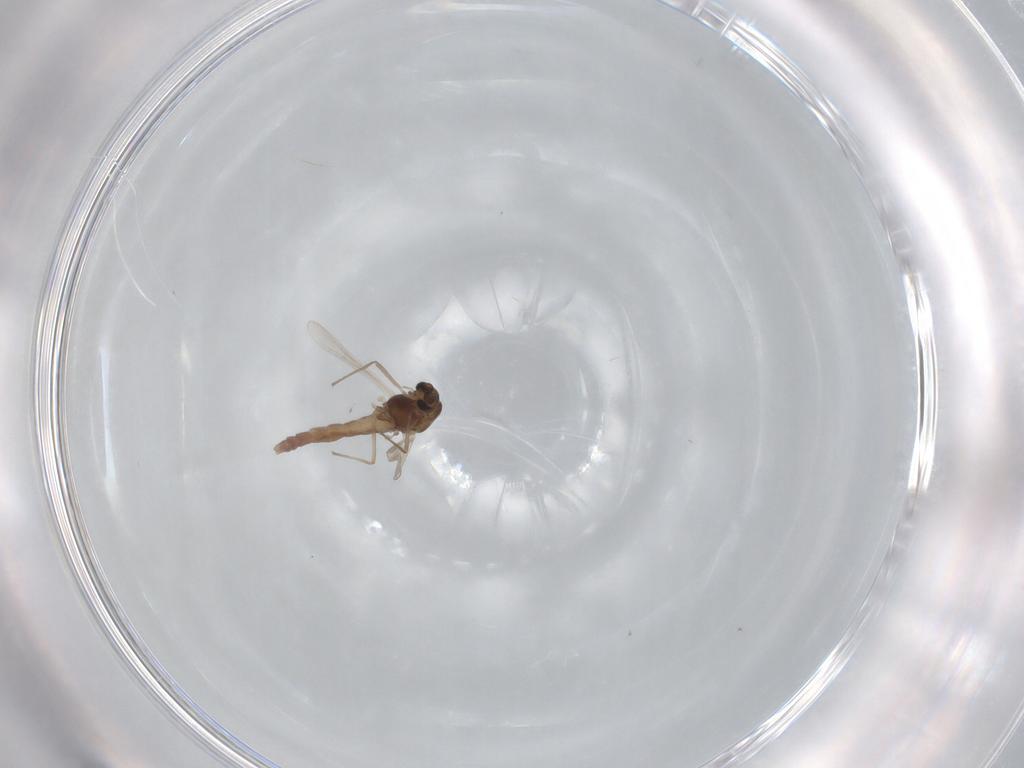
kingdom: Animalia
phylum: Arthropoda
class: Insecta
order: Diptera
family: Chironomidae
